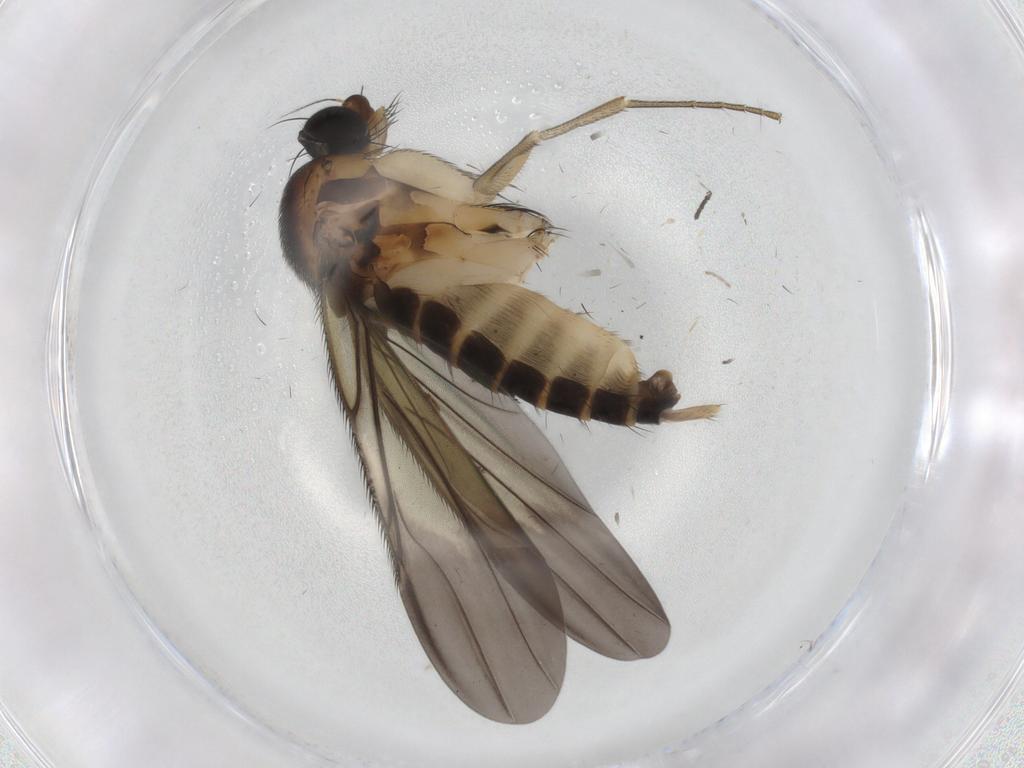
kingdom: Animalia
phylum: Arthropoda
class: Insecta
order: Diptera
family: Phoridae
